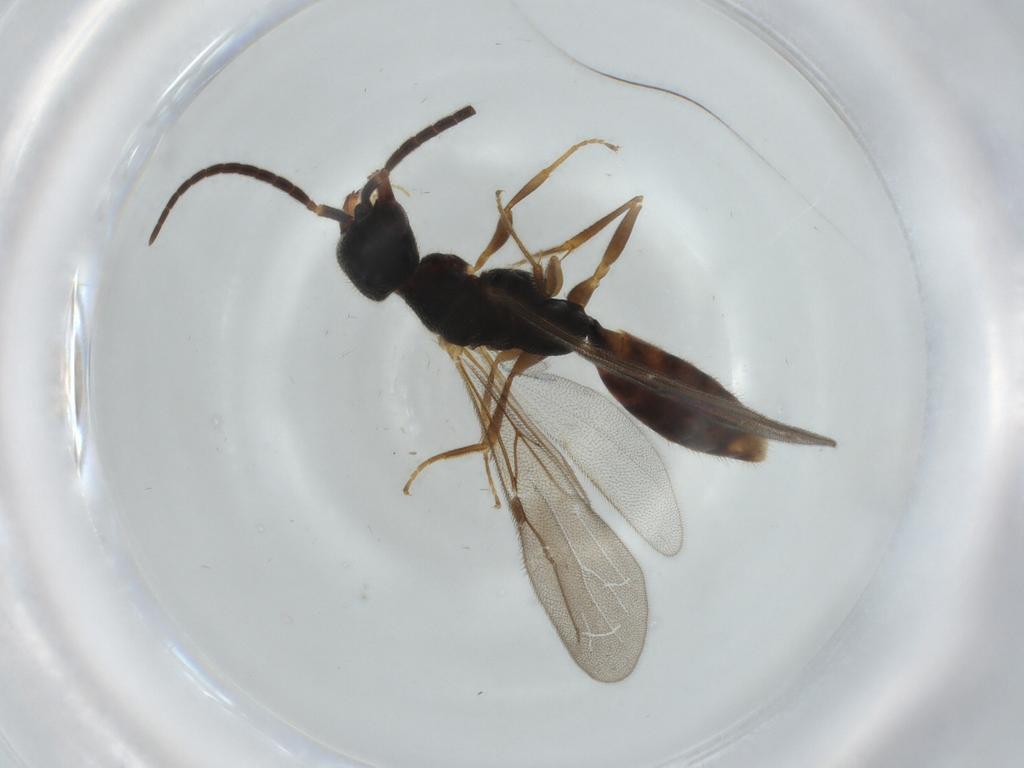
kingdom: Animalia
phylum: Arthropoda
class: Insecta
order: Hymenoptera
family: Bethylidae
